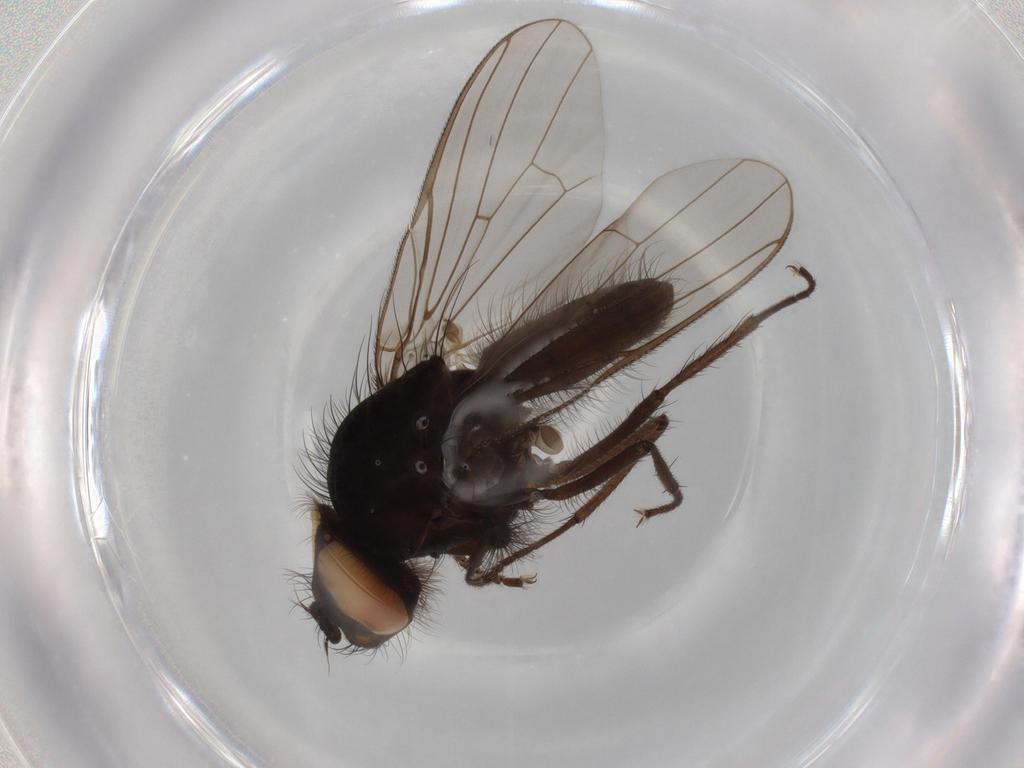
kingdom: Animalia
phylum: Arthropoda
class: Insecta
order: Diptera
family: Anthomyiidae
